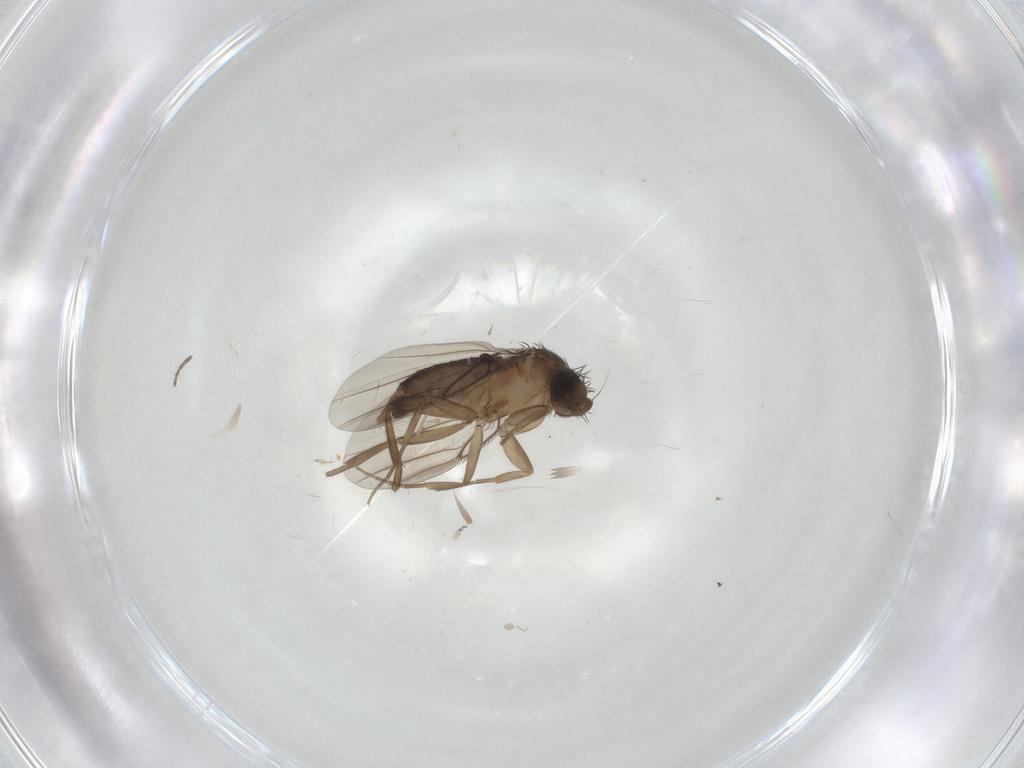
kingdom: Animalia
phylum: Arthropoda
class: Insecta
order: Diptera
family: Phoridae
